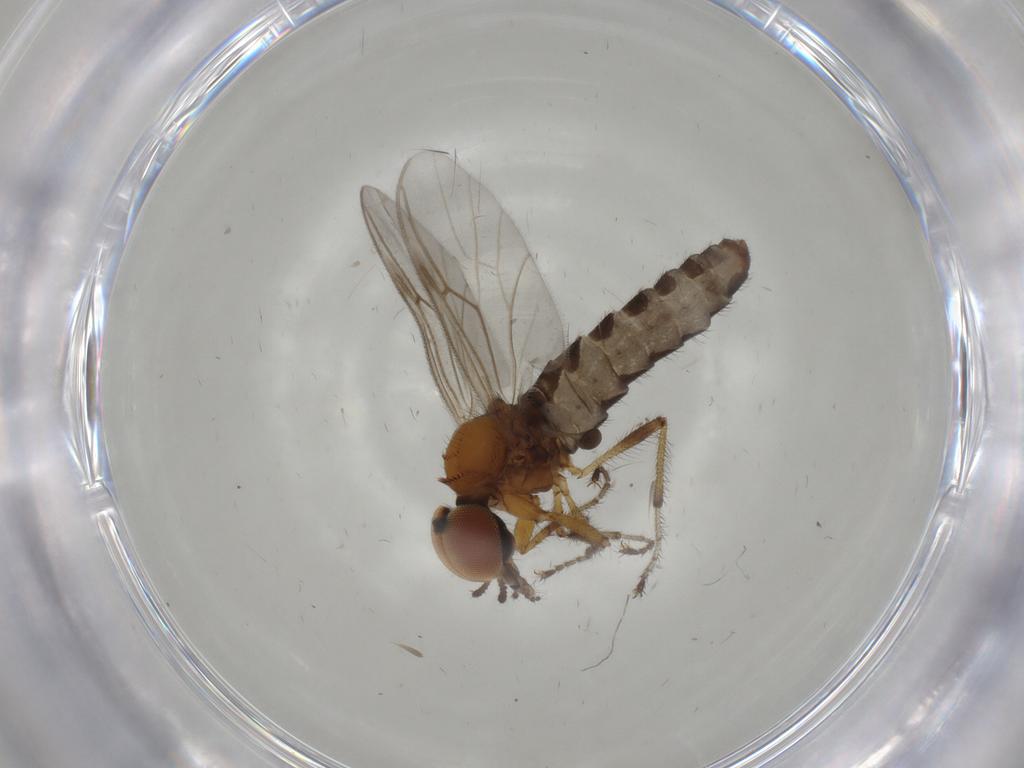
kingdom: Animalia
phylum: Arthropoda
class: Insecta
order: Diptera
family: Bibionidae
